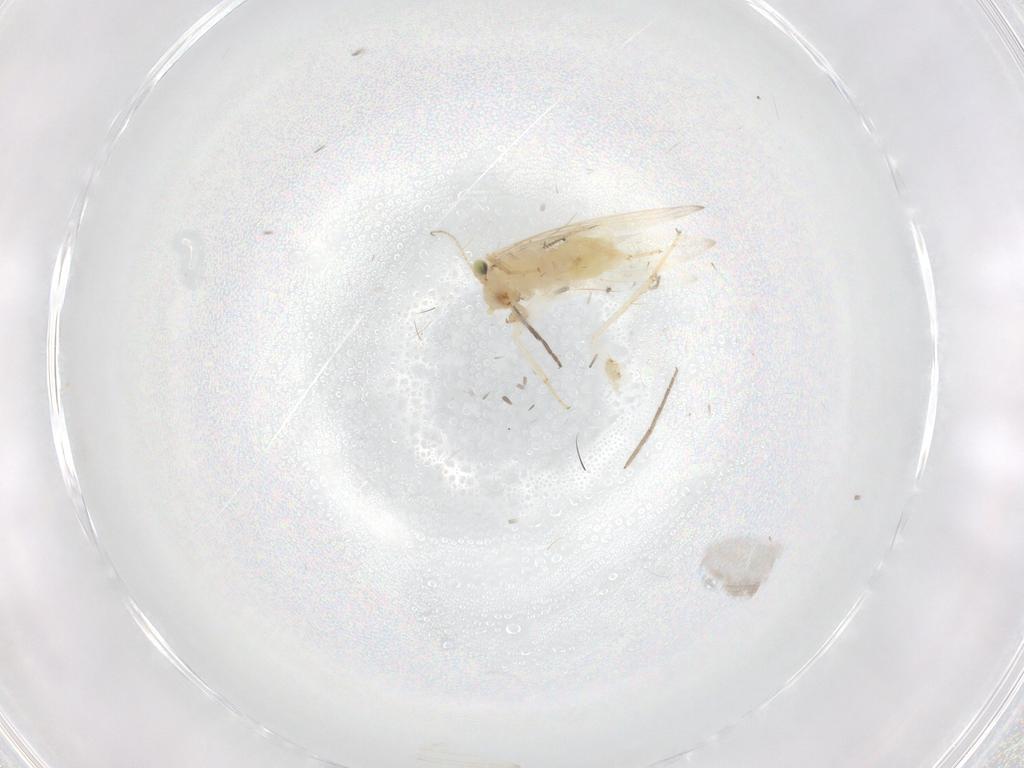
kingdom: Animalia
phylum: Arthropoda
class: Insecta
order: Psocodea
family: Lepidopsocidae
